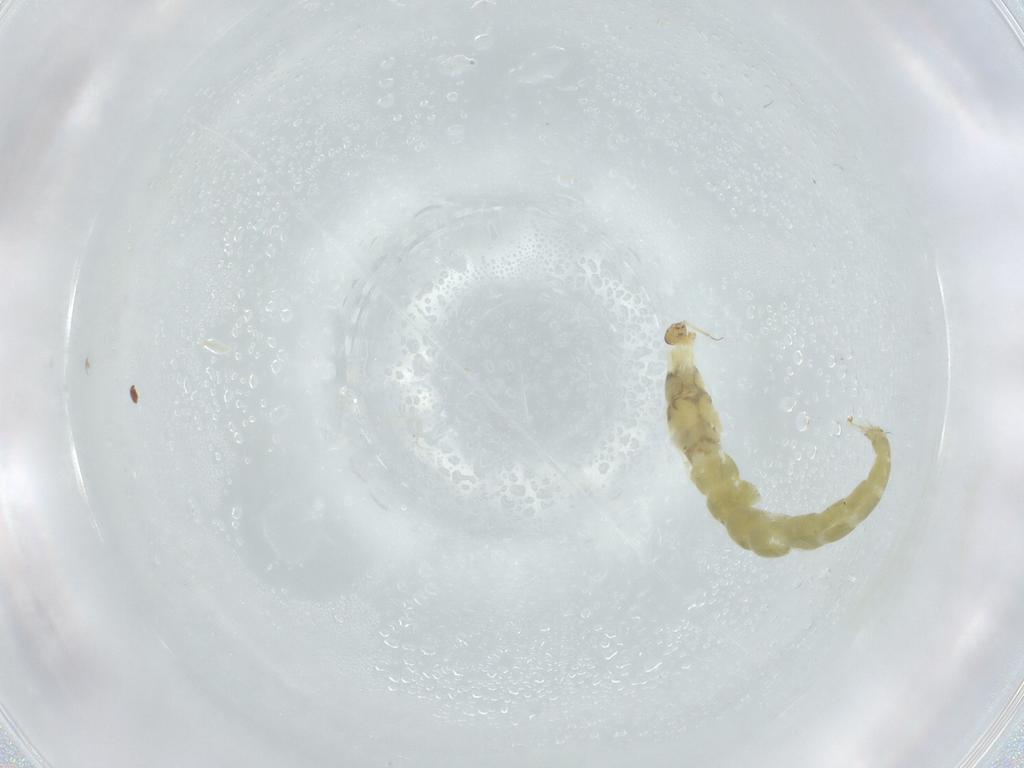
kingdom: Animalia
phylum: Arthropoda
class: Insecta
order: Diptera
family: Chironomidae
